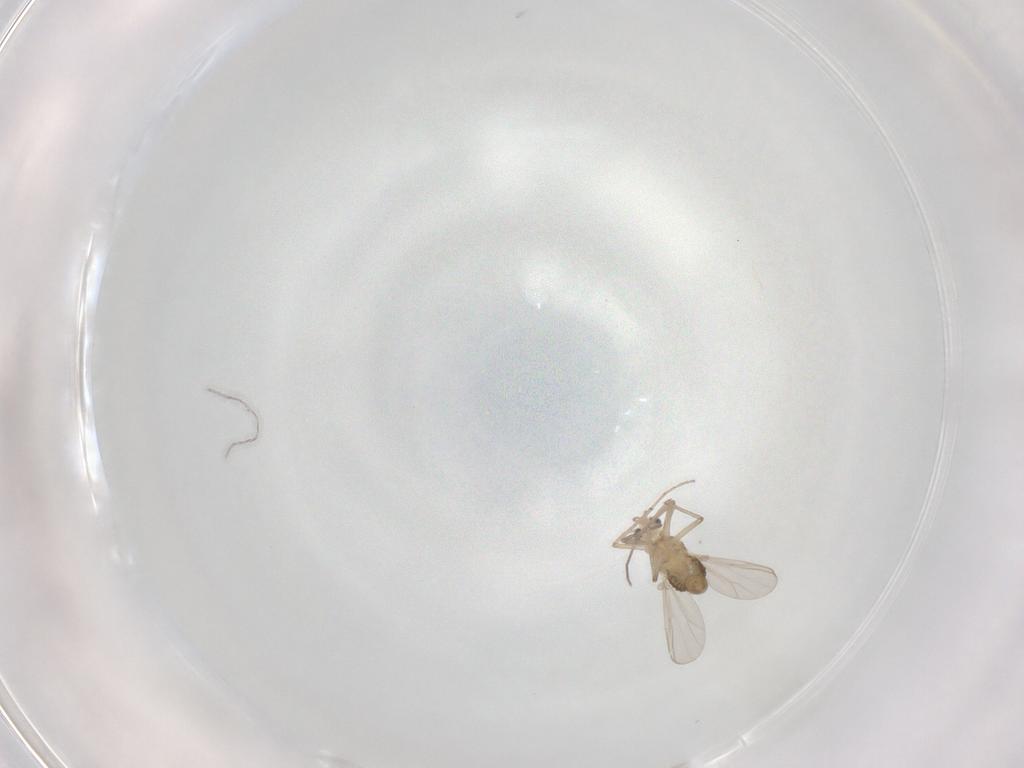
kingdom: Animalia
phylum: Arthropoda
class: Insecta
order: Diptera
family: Chironomidae
